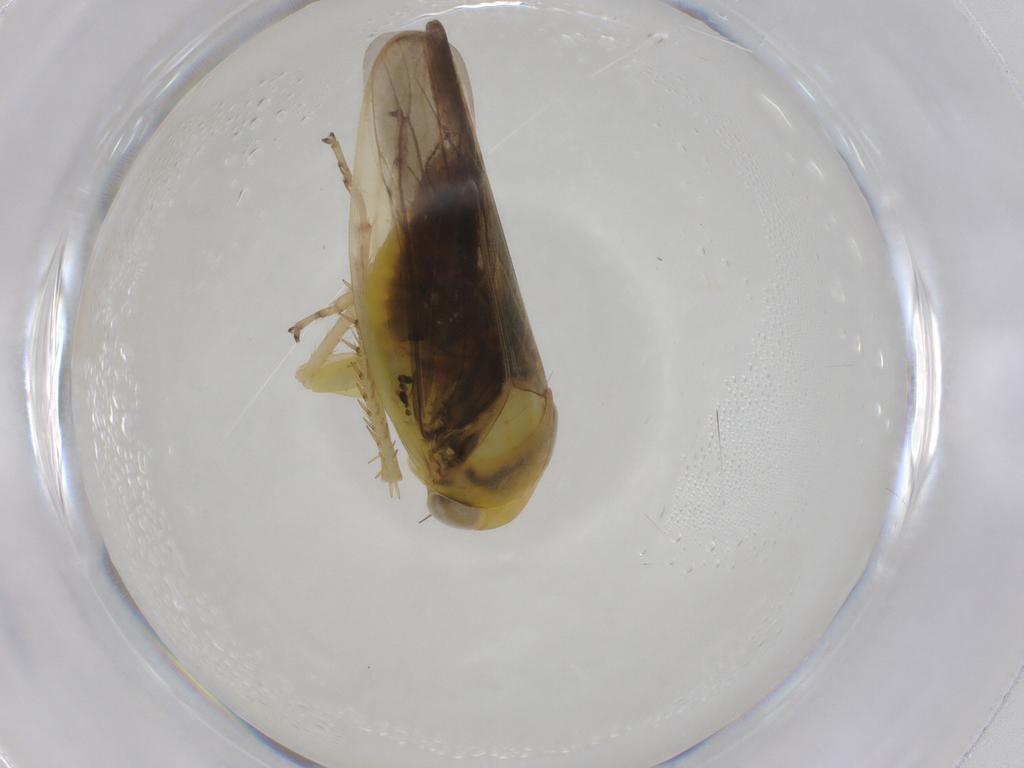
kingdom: Animalia
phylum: Arthropoda
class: Insecta
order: Hemiptera
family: Cicadellidae
